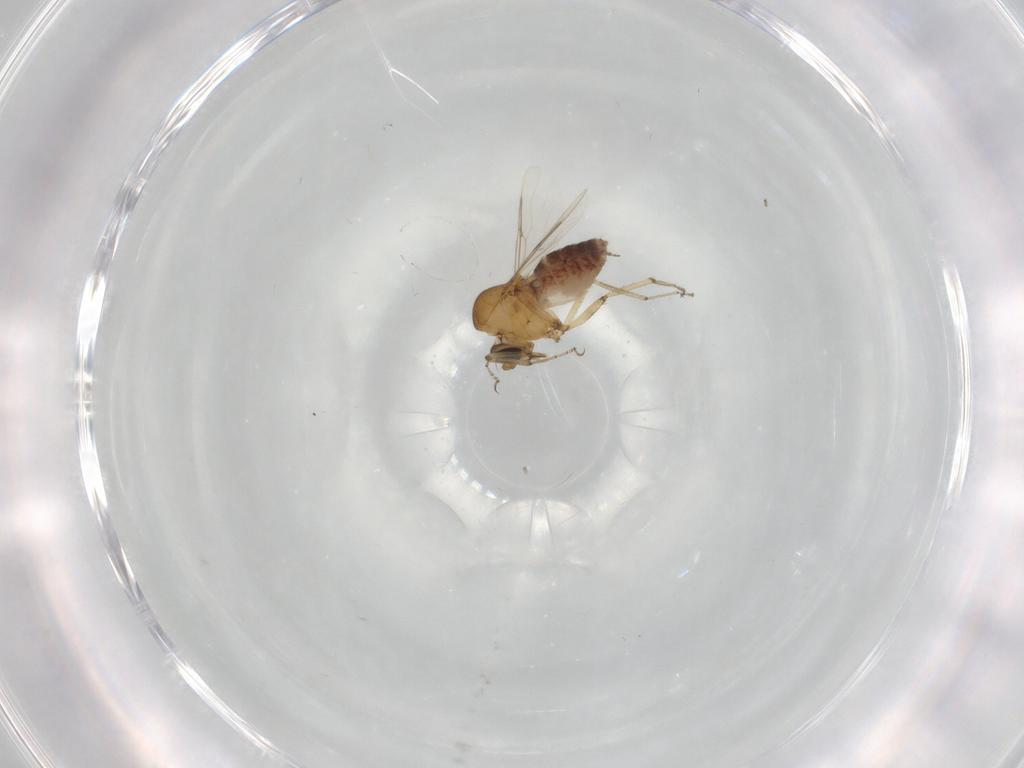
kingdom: Animalia
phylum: Arthropoda
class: Insecta
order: Diptera
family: Ceratopogonidae
